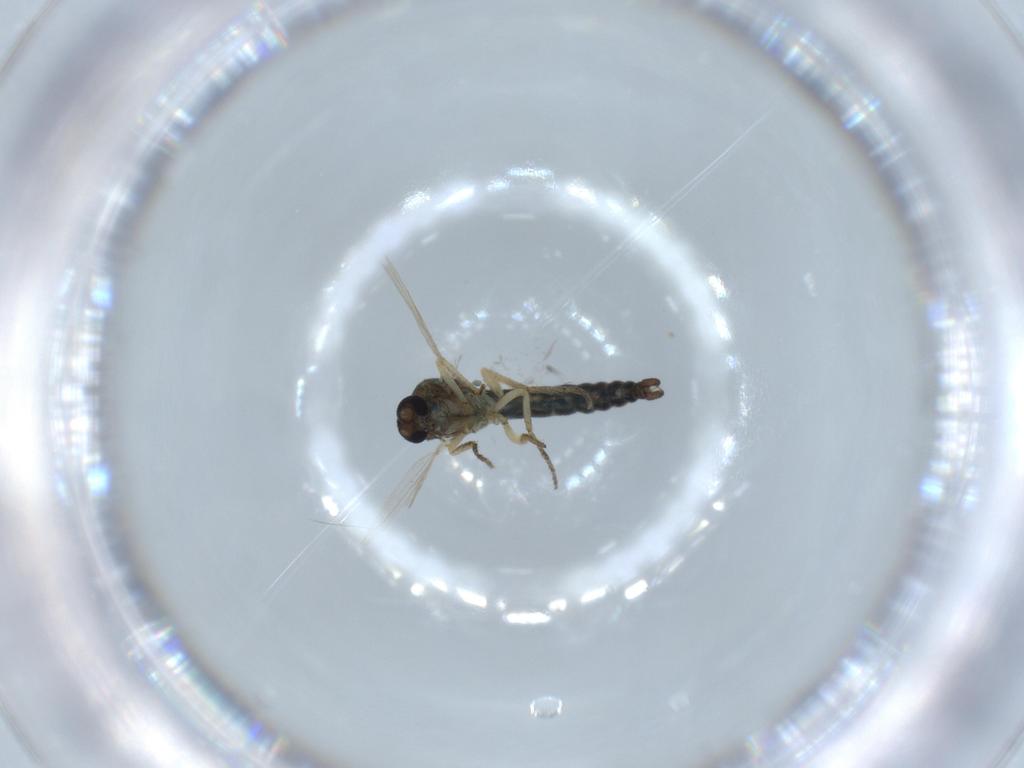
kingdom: Animalia
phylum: Arthropoda
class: Insecta
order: Diptera
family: Ceratopogonidae
